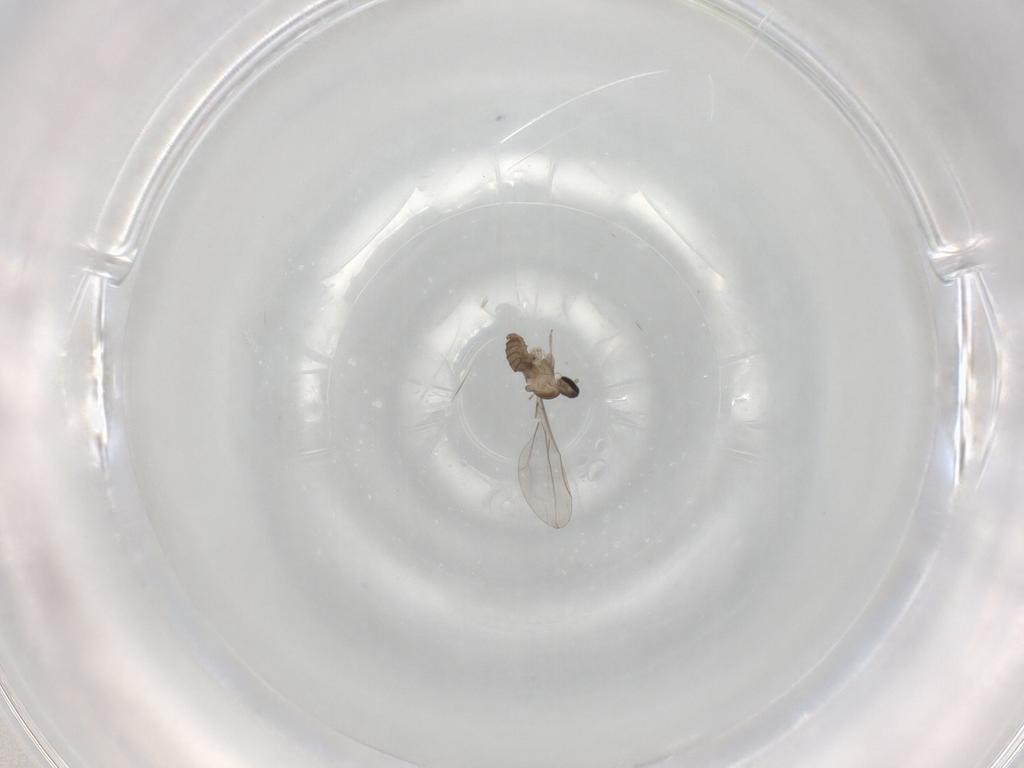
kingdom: Animalia
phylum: Arthropoda
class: Insecta
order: Diptera
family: Cecidomyiidae
